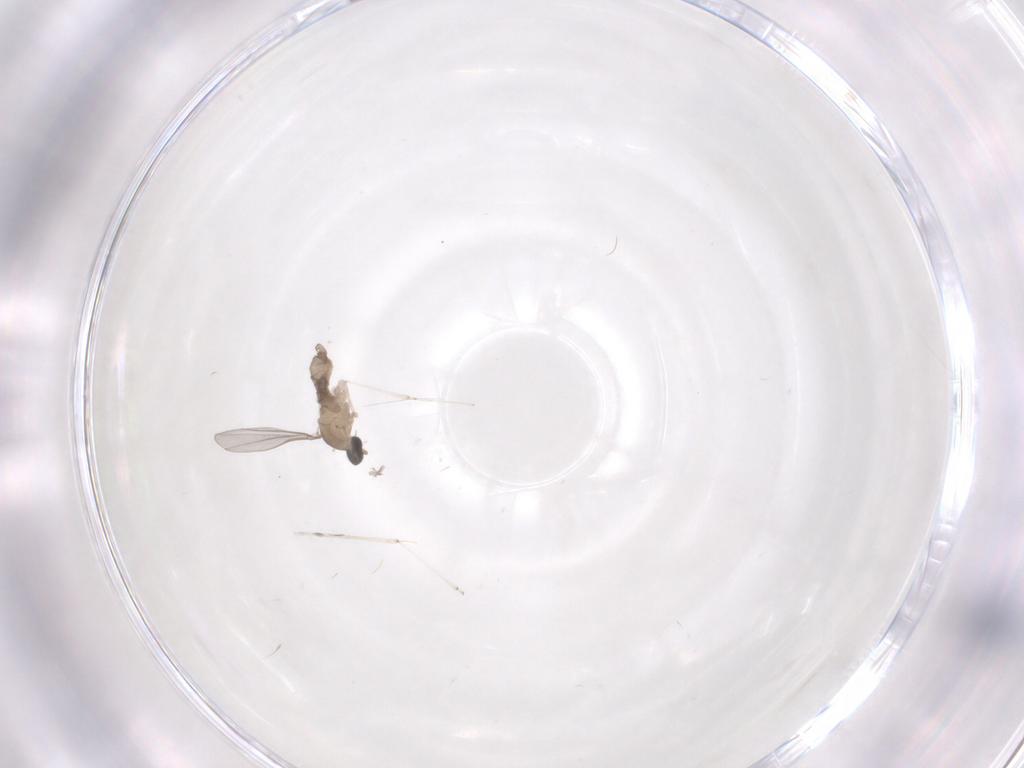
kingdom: Animalia
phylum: Arthropoda
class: Insecta
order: Diptera
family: Cecidomyiidae
